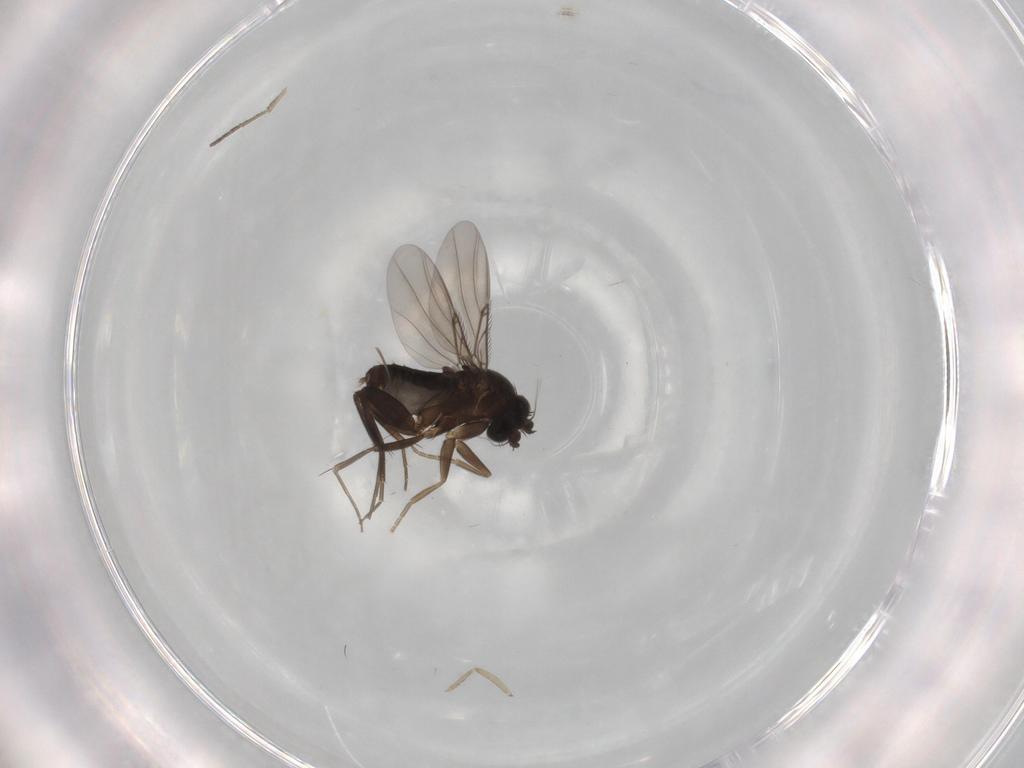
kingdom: Animalia
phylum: Arthropoda
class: Insecta
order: Diptera
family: Phoridae
